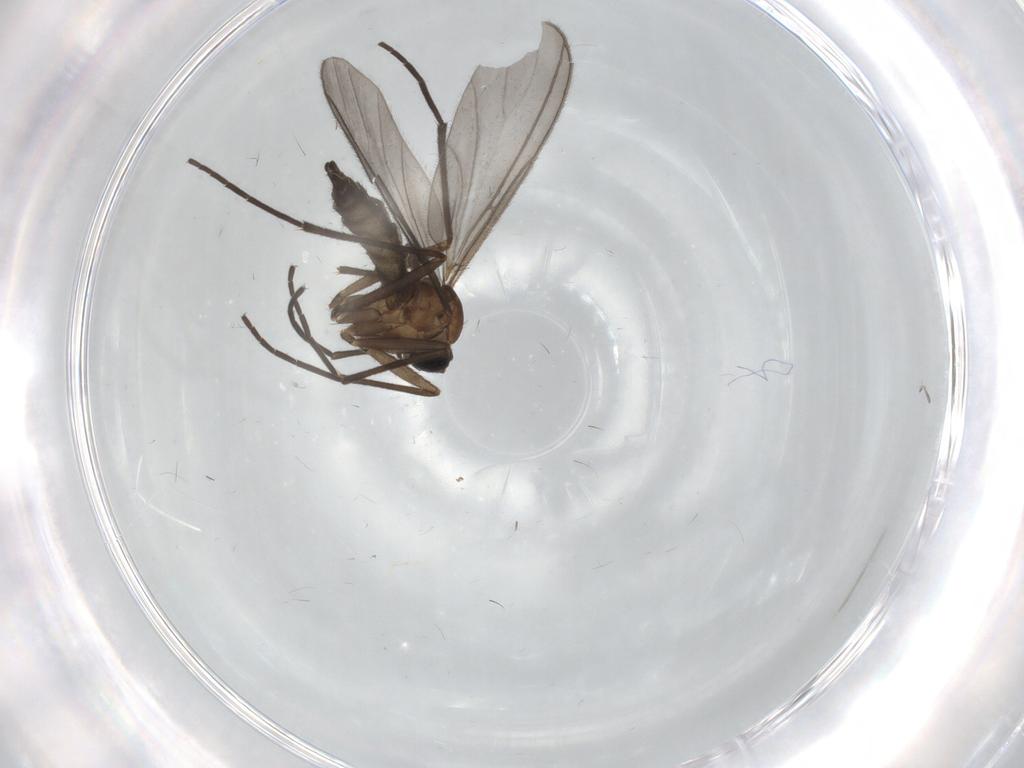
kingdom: Animalia
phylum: Arthropoda
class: Insecta
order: Diptera
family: Sciaridae
